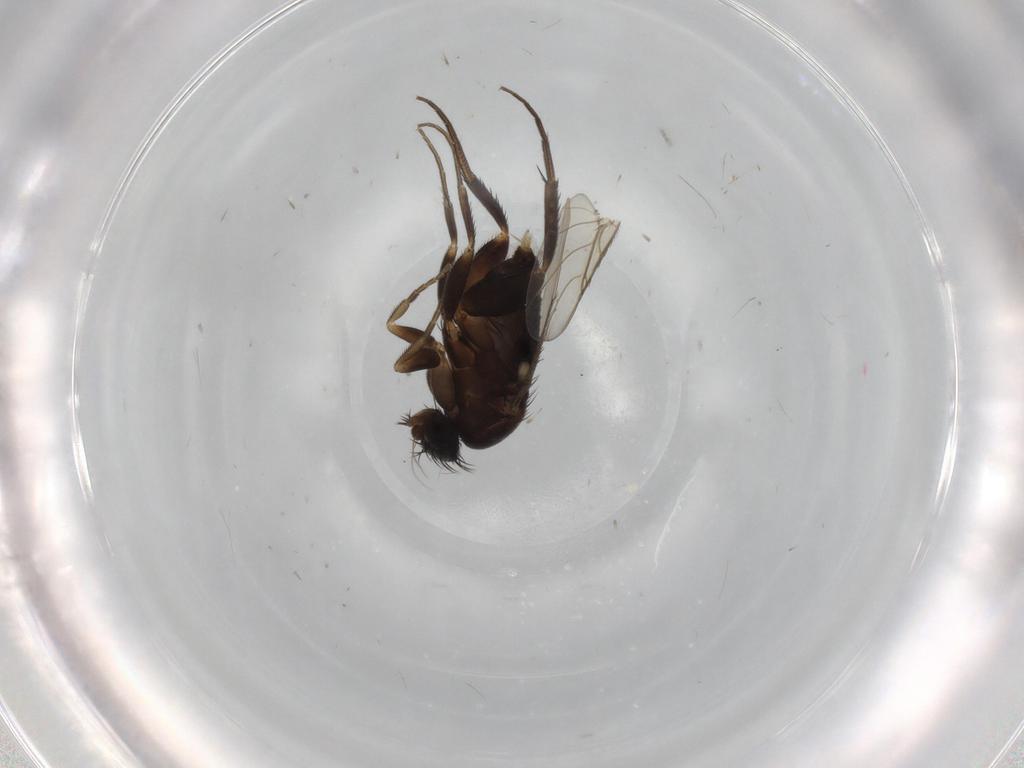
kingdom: Animalia
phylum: Arthropoda
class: Insecta
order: Diptera
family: Phoridae
